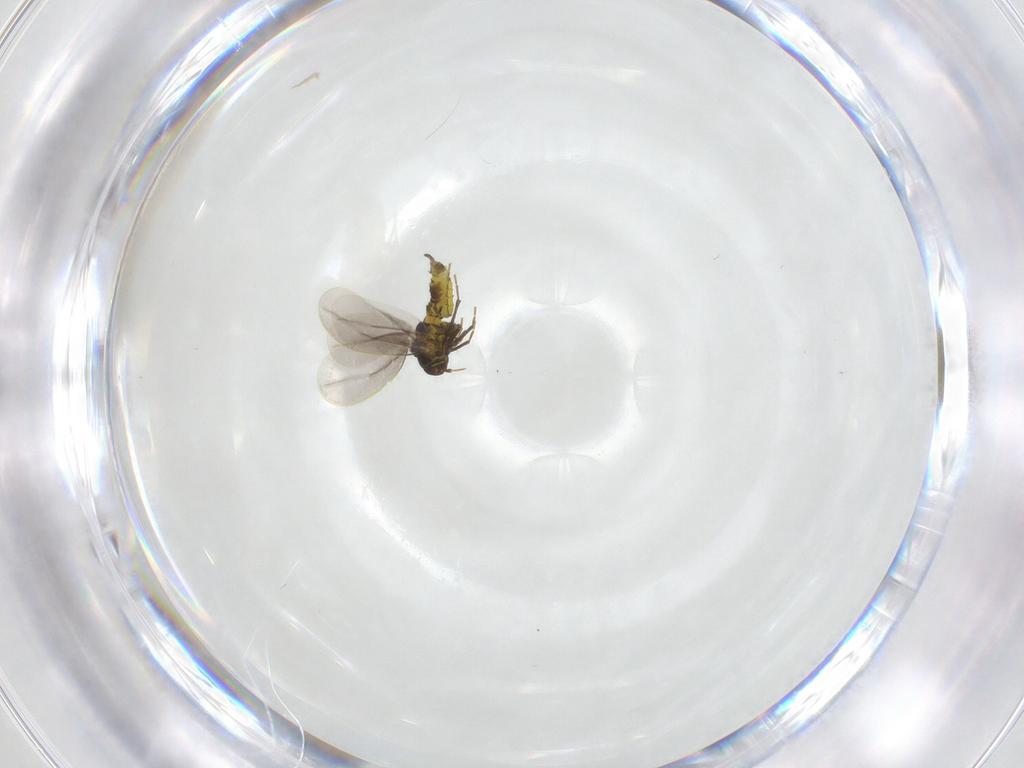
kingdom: Animalia
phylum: Arthropoda
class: Insecta
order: Hemiptera
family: Aleyrodidae
